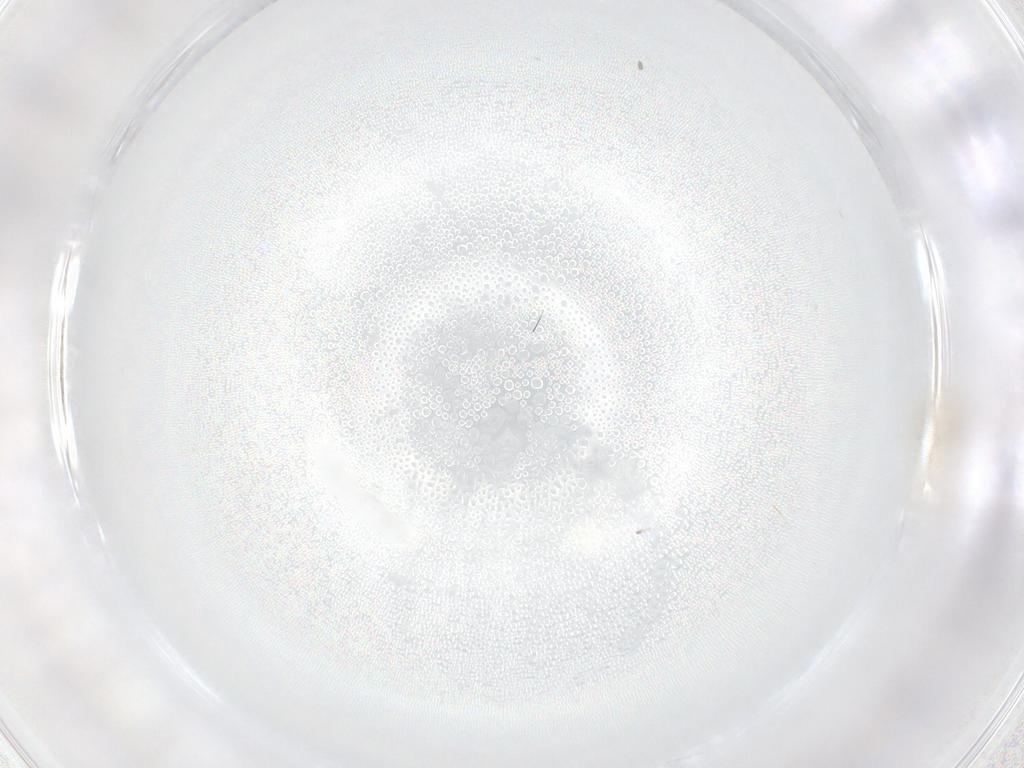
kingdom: Animalia
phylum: Arthropoda
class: Insecta
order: Diptera
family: Chironomidae
